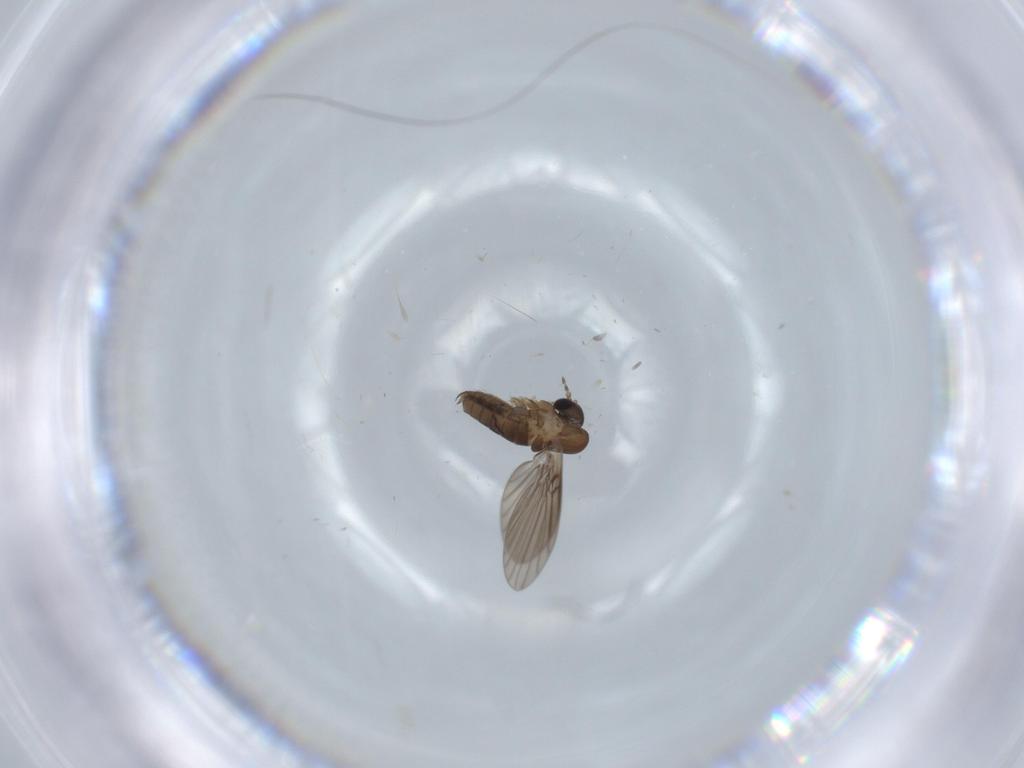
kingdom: Animalia
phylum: Arthropoda
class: Insecta
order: Diptera
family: Psychodidae
